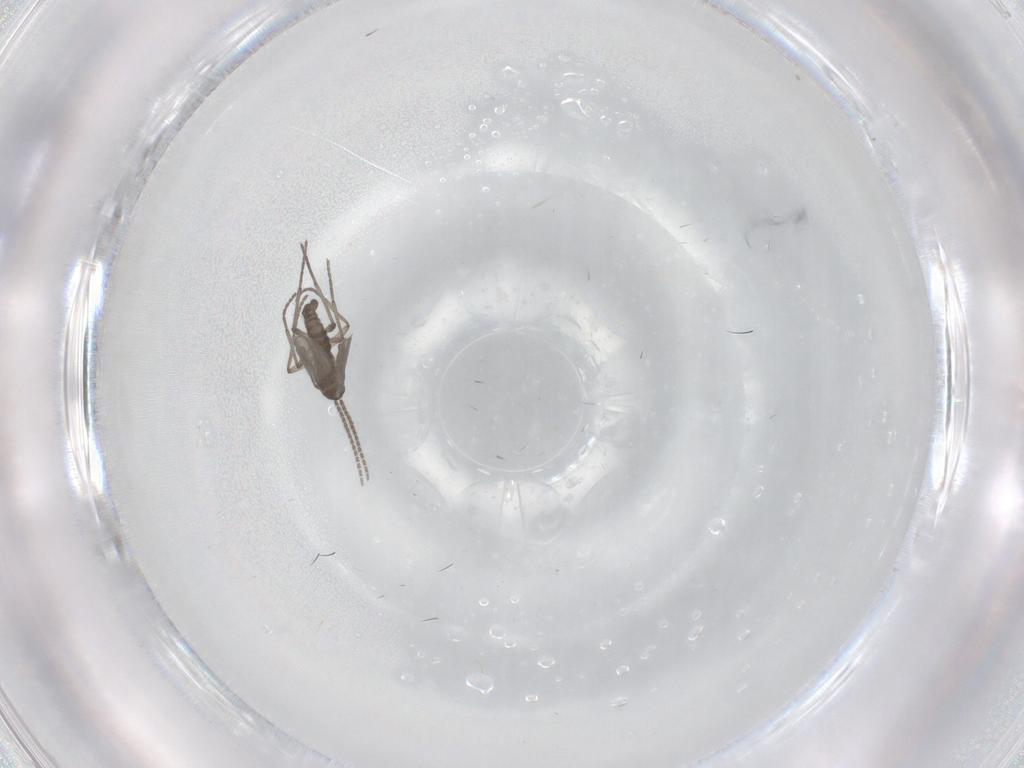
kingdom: Animalia
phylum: Arthropoda
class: Insecta
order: Diptera
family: Sciaridae
